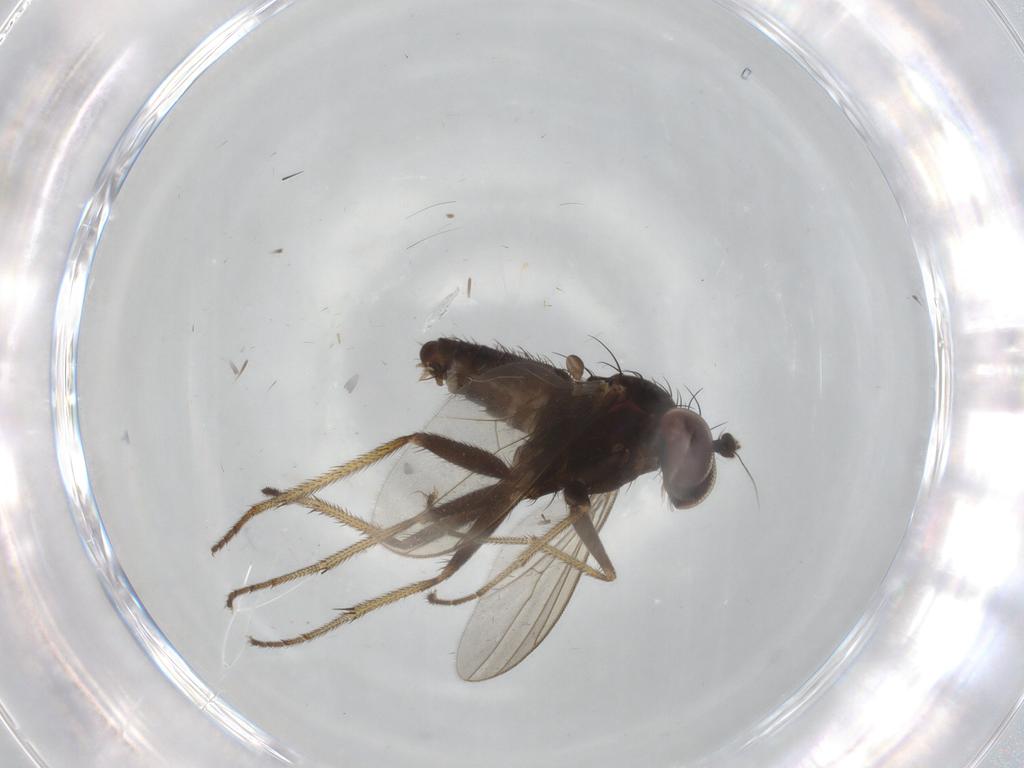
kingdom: Animalia
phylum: Arthropoda
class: Insecta
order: Diptera
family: Dolichopodidae
